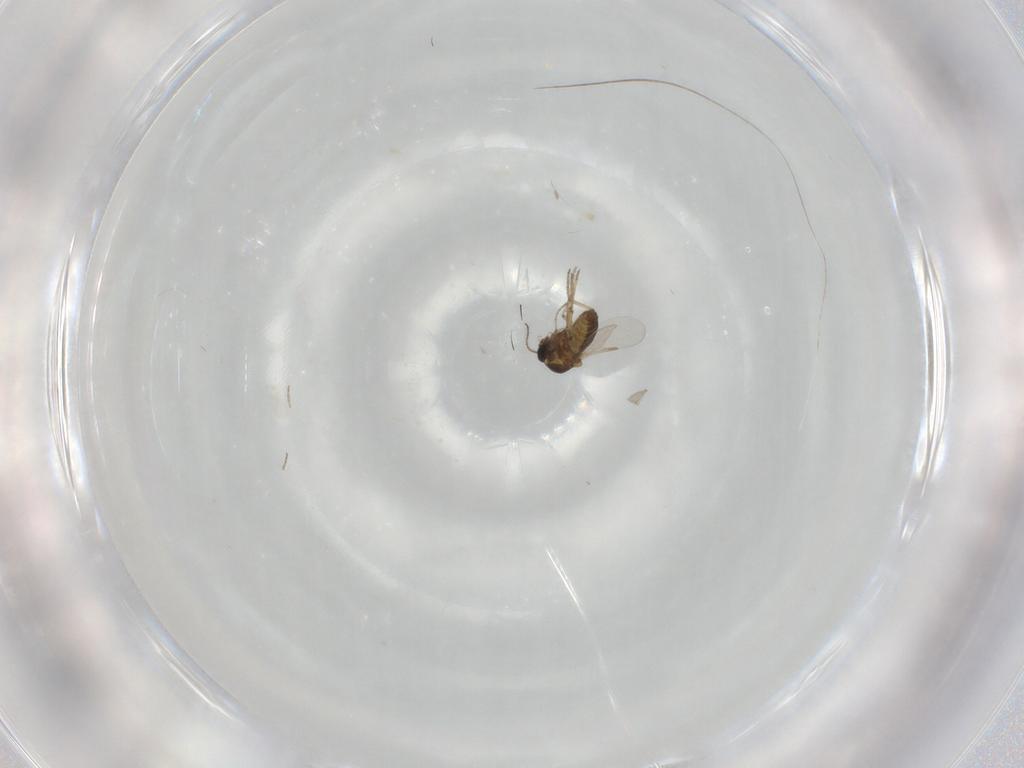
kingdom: Animalia
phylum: Arthropoda
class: Insecta
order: Diptera
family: Ceratopogonidae
